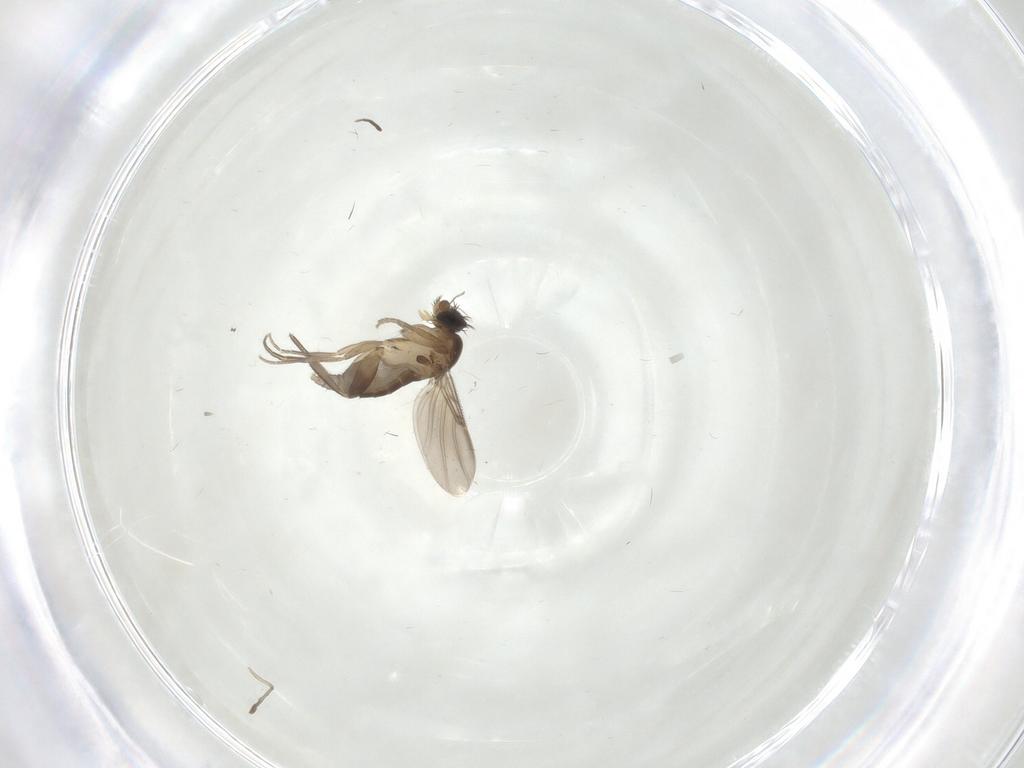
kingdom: Animalia
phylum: Arthropoda
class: Insecta
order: Diptera
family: Phoridae
